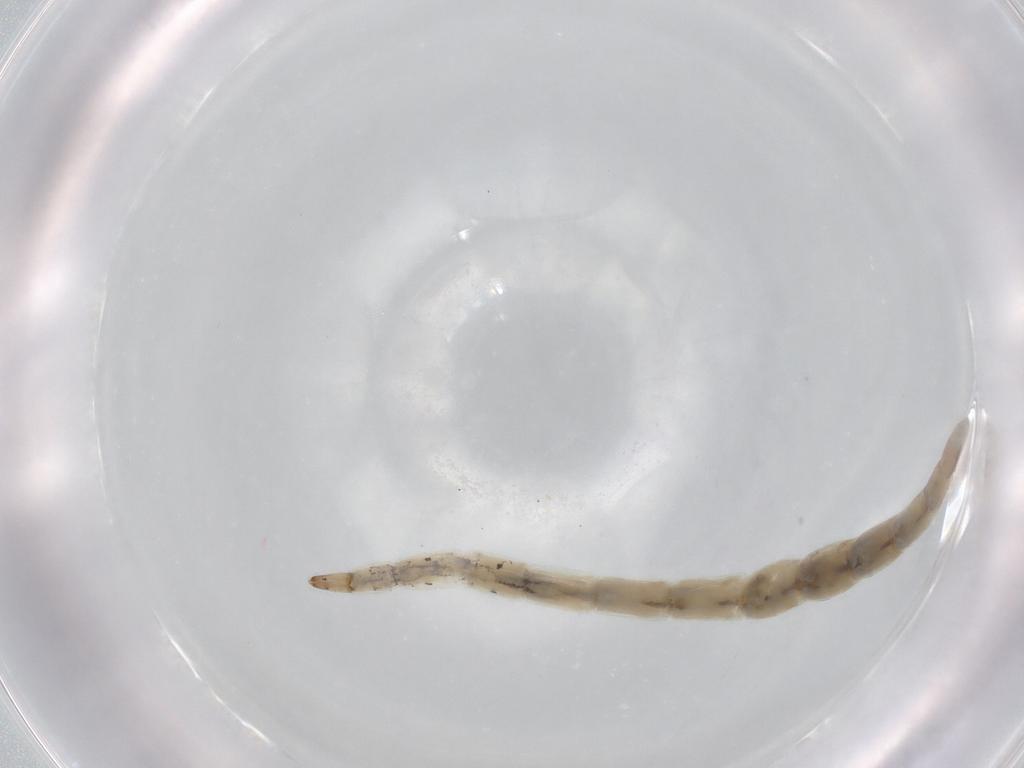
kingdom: Animalia
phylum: Arthropoda
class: Insecta
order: Diptera
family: Ceratopogonidae
